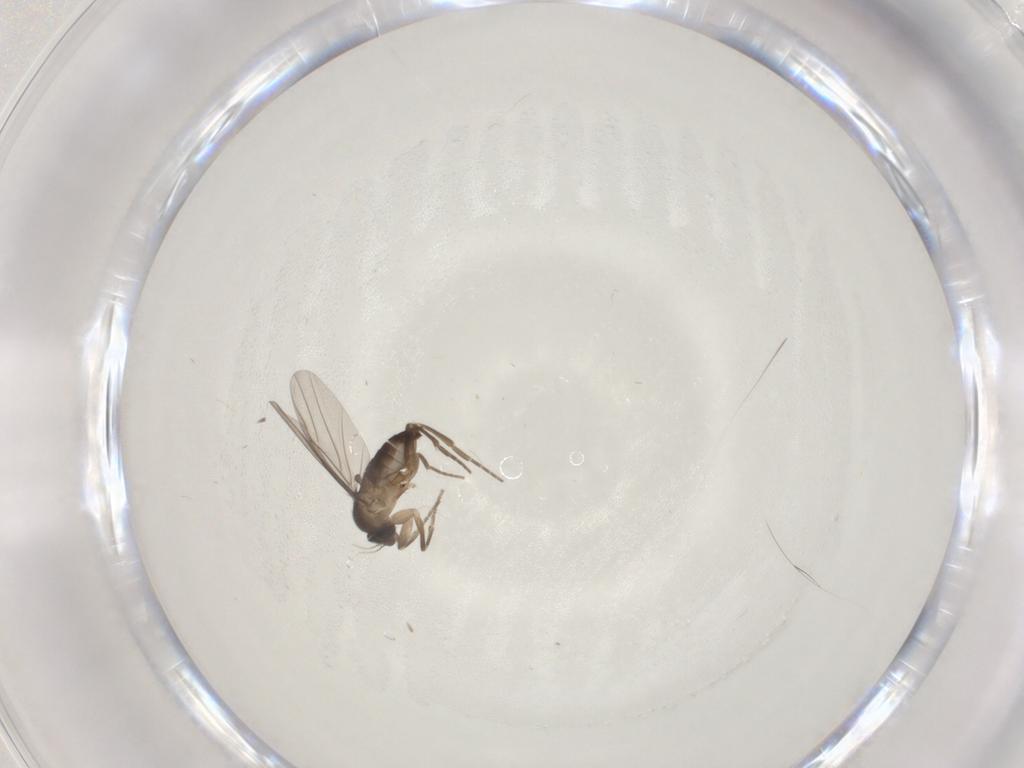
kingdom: Animalia
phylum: Arthropoda
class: Insecta
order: Diptera
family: Phoridae
